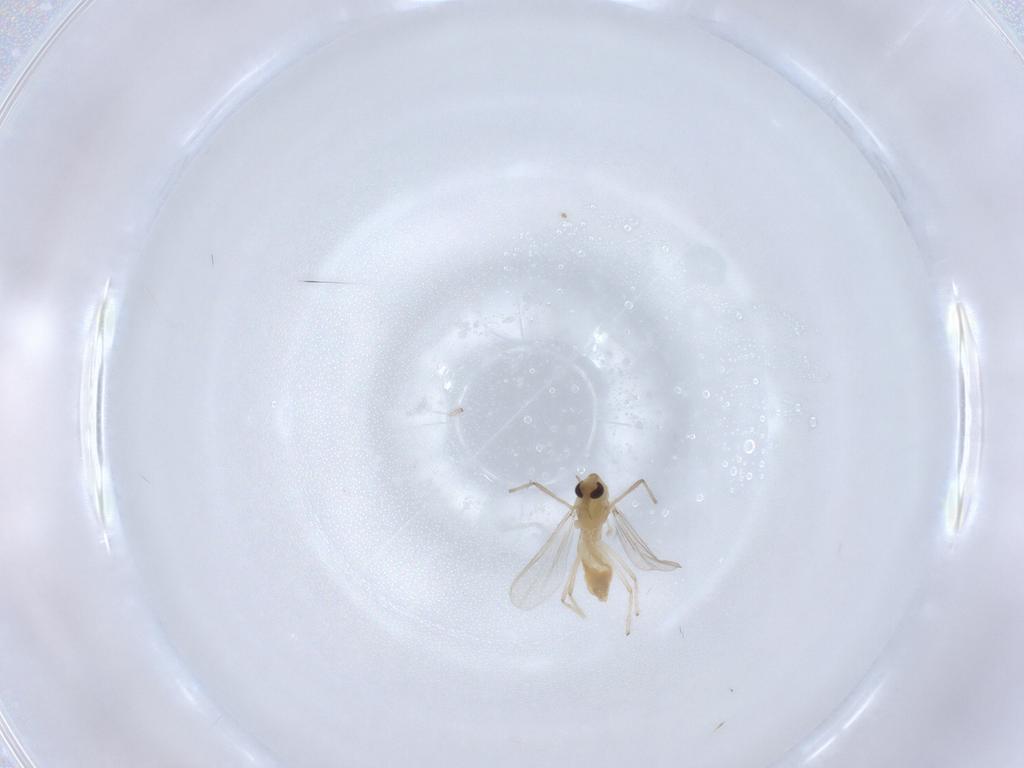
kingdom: Animalia
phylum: Arthropoda
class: Insecta
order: Diptera
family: Chironomidae
